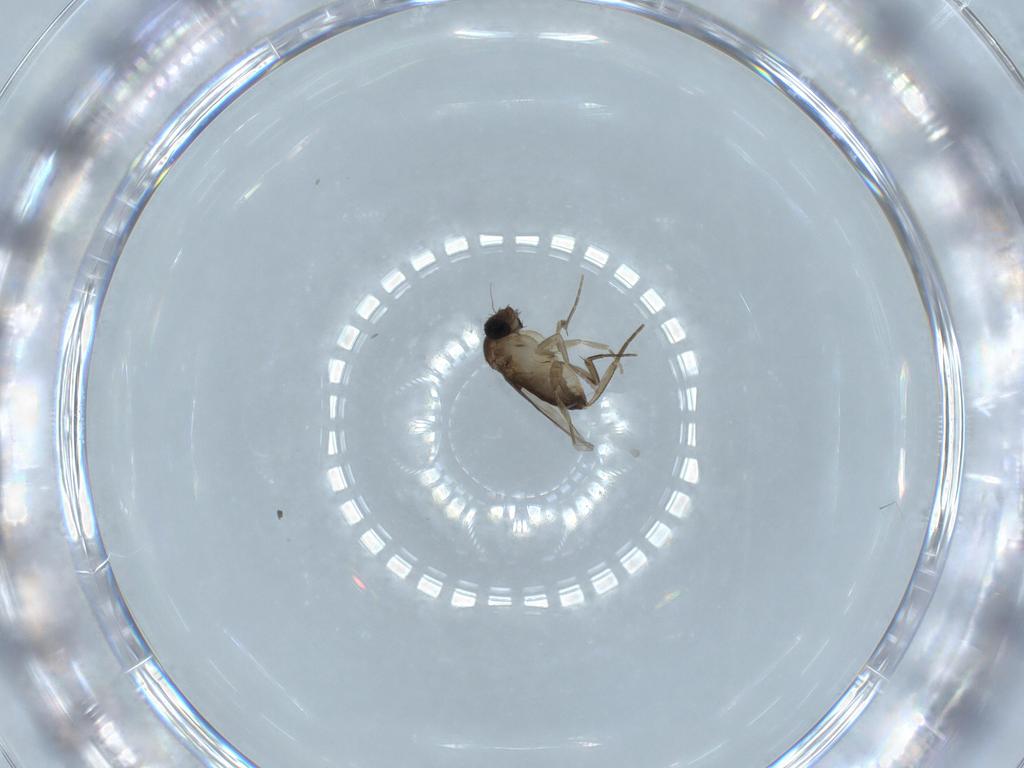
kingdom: Animalia
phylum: Arthropoda
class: Insecta
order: Diptera
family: Phoridae
